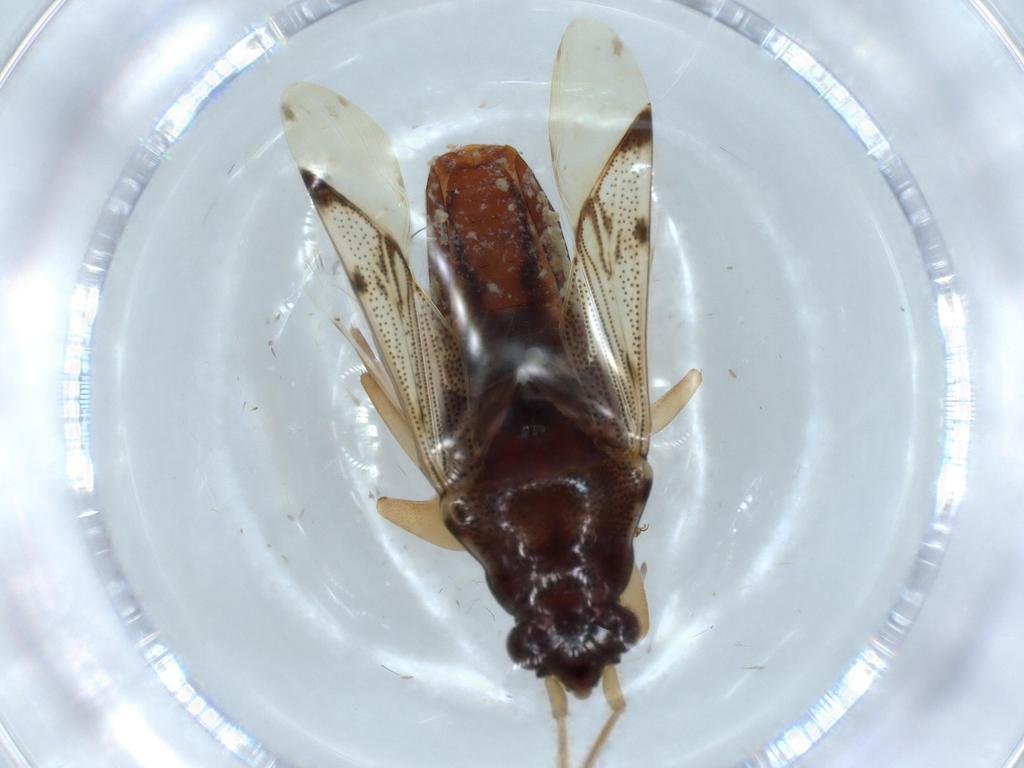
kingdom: Animalia
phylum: Arthropoda
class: Insecta
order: Hemiptera
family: Rhyparochromidae
